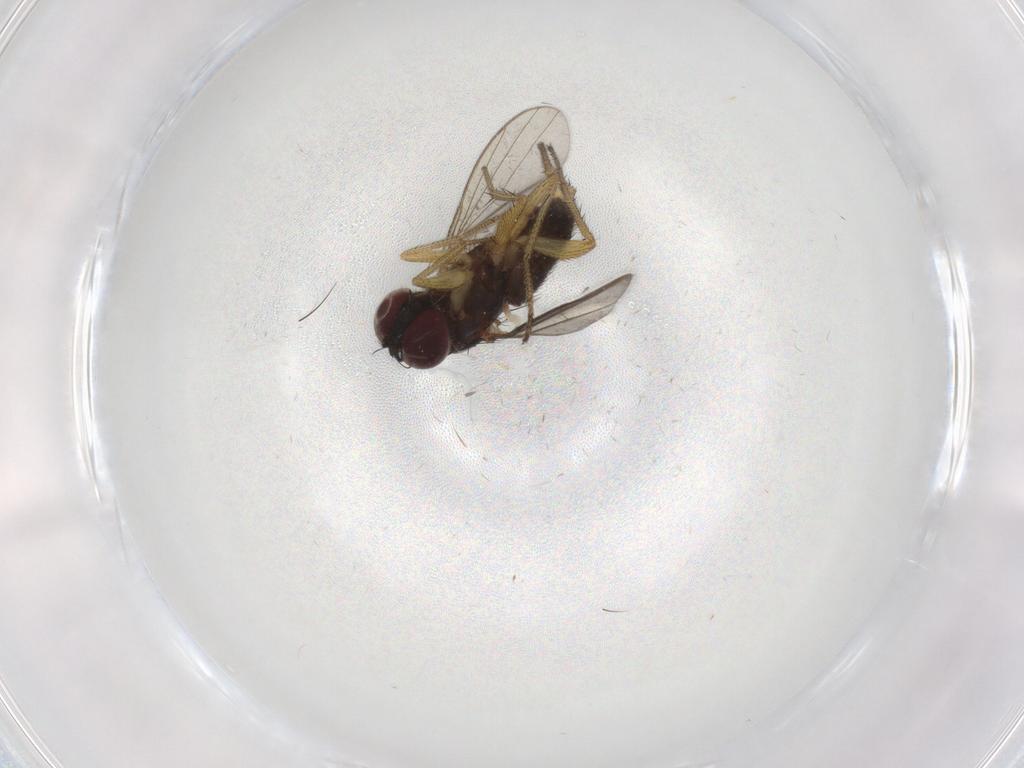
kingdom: Animalia
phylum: Arthropoda
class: Insecta
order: Diptera
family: Dolichopodidae
